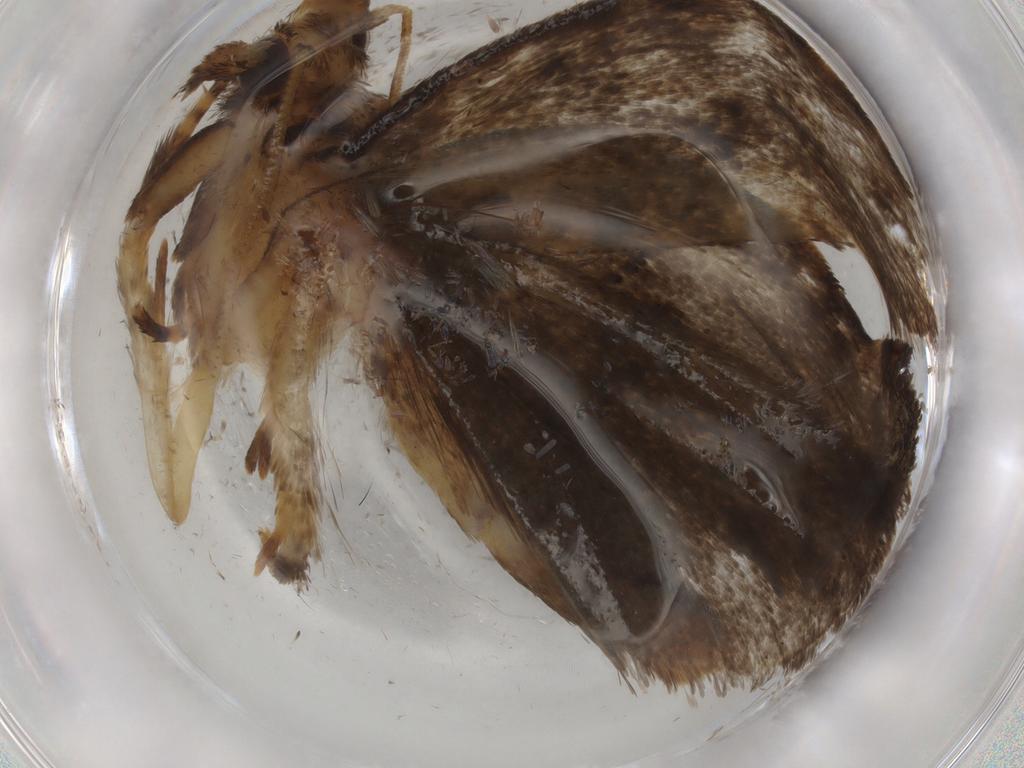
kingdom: Animalia
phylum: Arthropoda
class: Insecta
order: Lepidoptera
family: Tineidae
